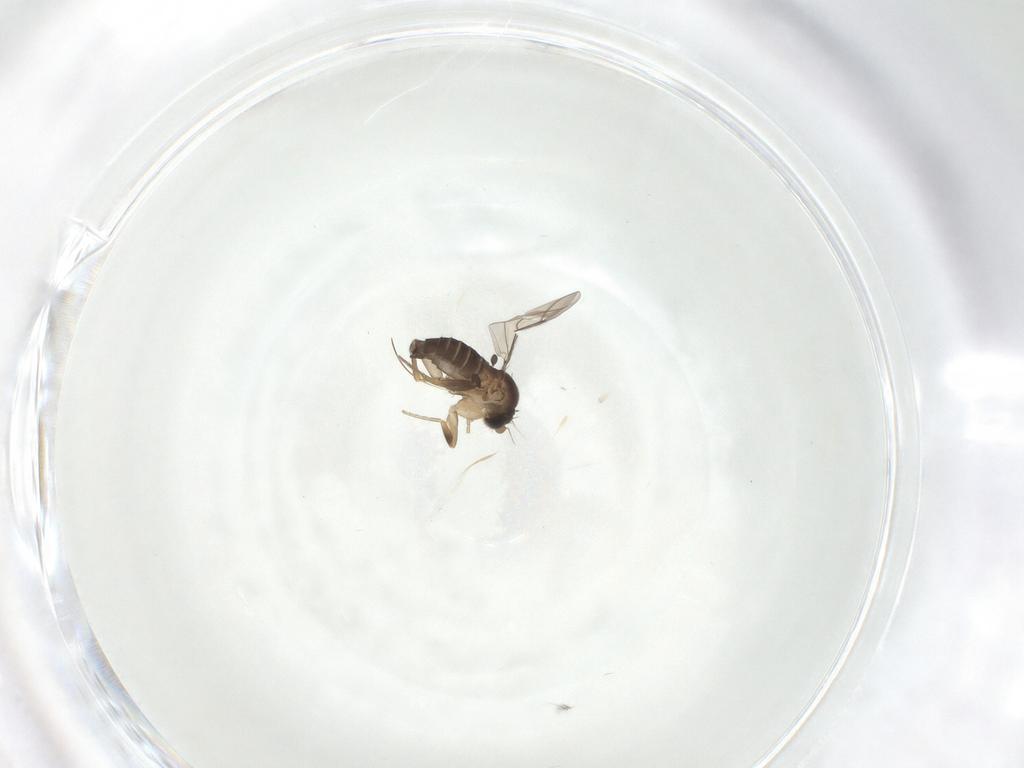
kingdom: Animalia
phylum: Arthropoda
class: Insecta
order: Diptera
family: Phoridae
